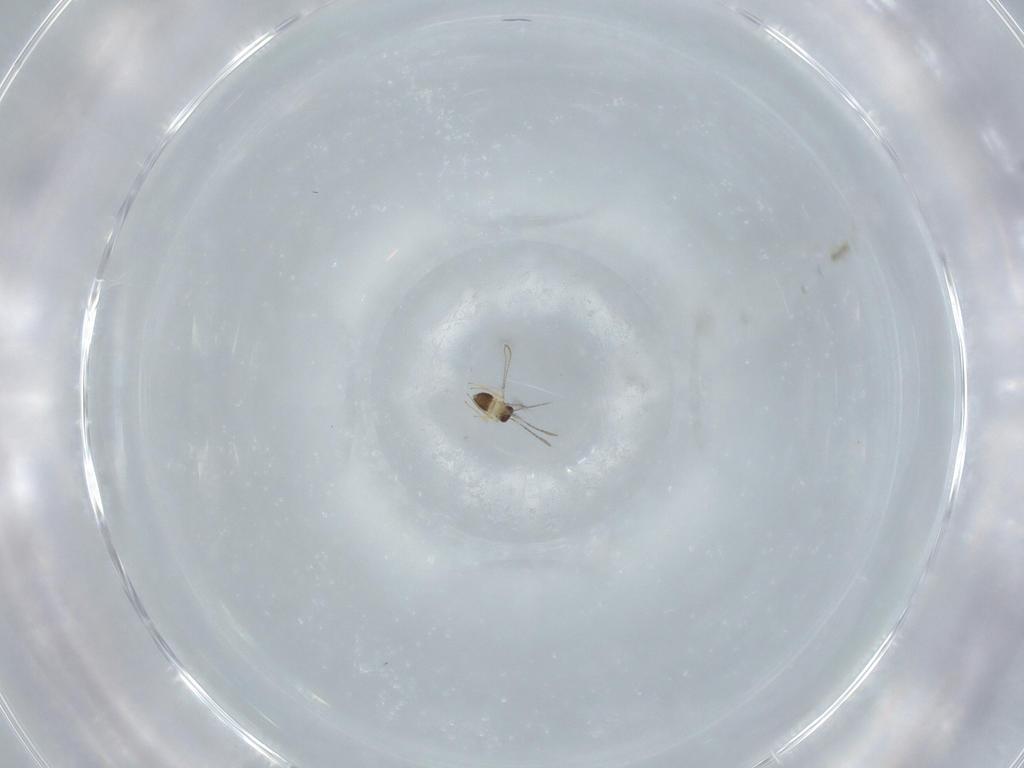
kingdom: Animalia
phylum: Arthropoda
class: Insecta
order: Hymenoptera
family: Mymaridae
